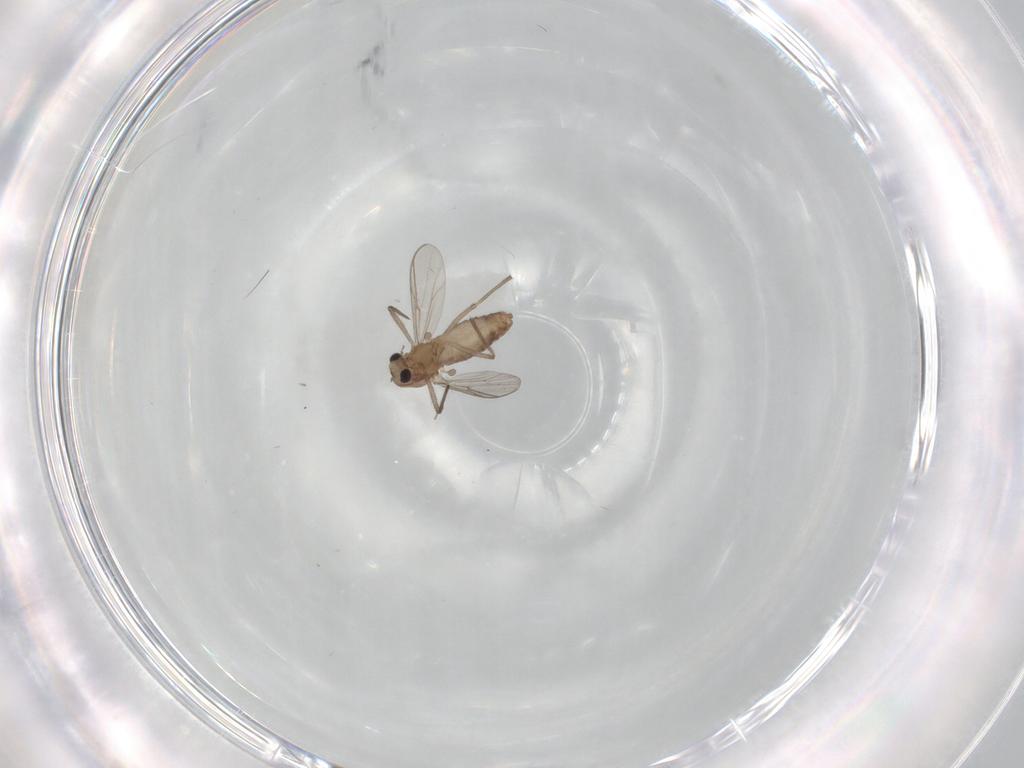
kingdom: Animalia
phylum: Arthropoda
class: Insecta
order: Diptera
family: Chironomidae
